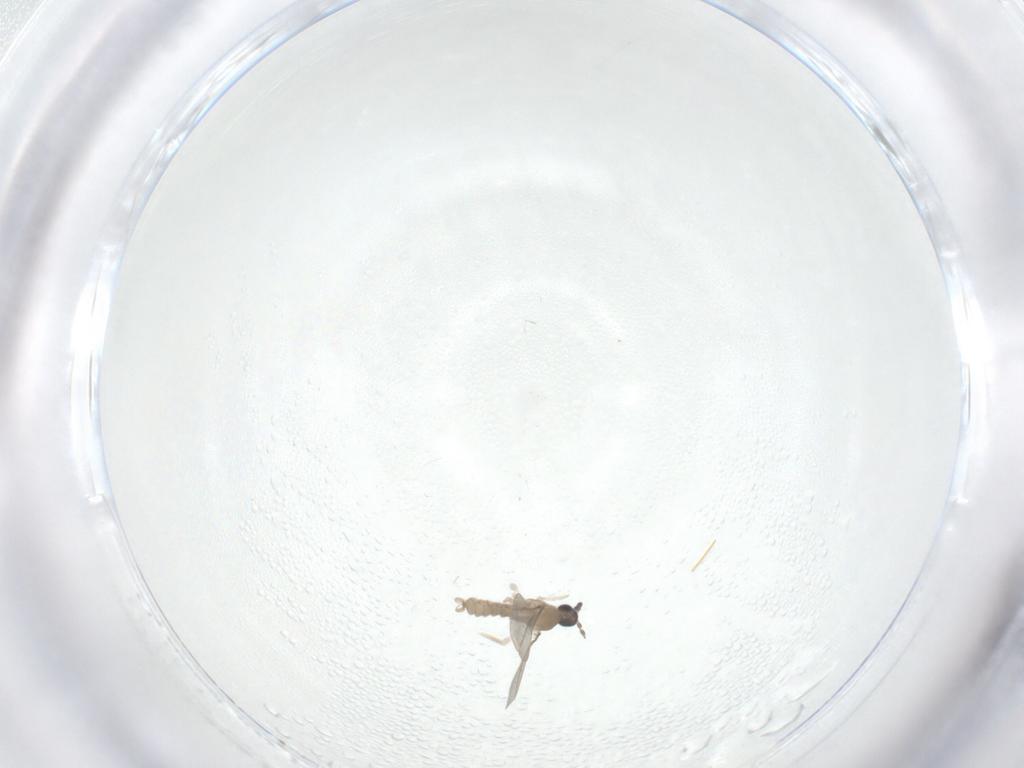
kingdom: Animalia
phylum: Arthropoda
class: Insecta
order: Diptera
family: Cecidomyiidae
